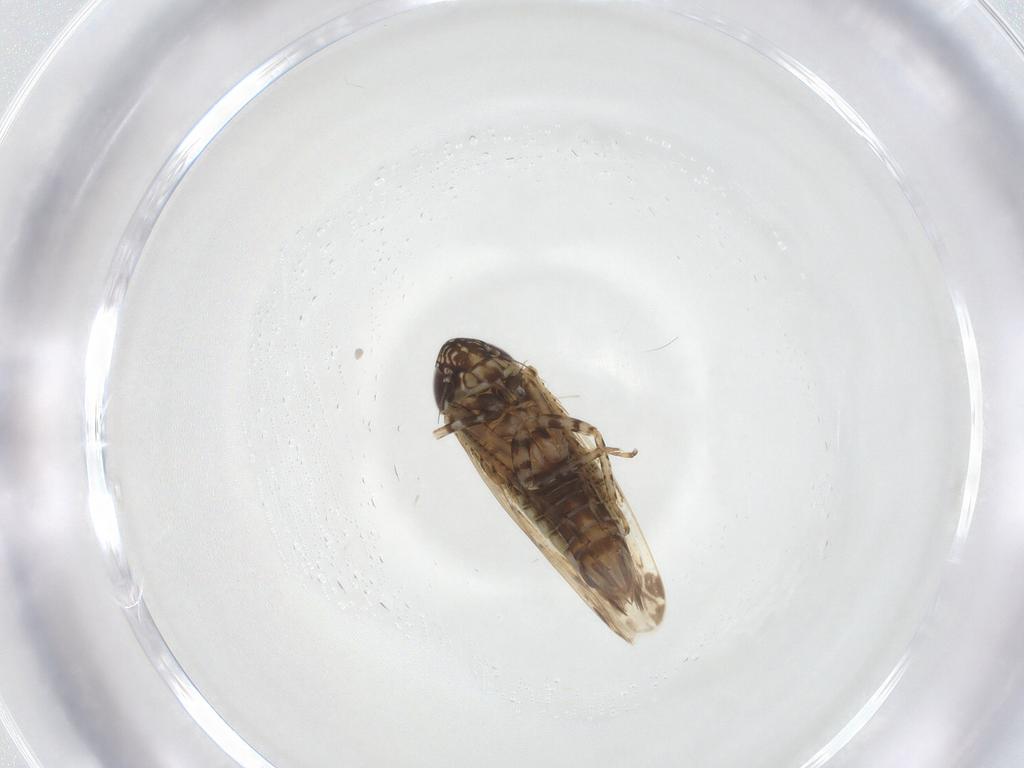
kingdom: Animalia
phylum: Arthropoda
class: Insecta
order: Hemiptera
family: Cicadellidae
